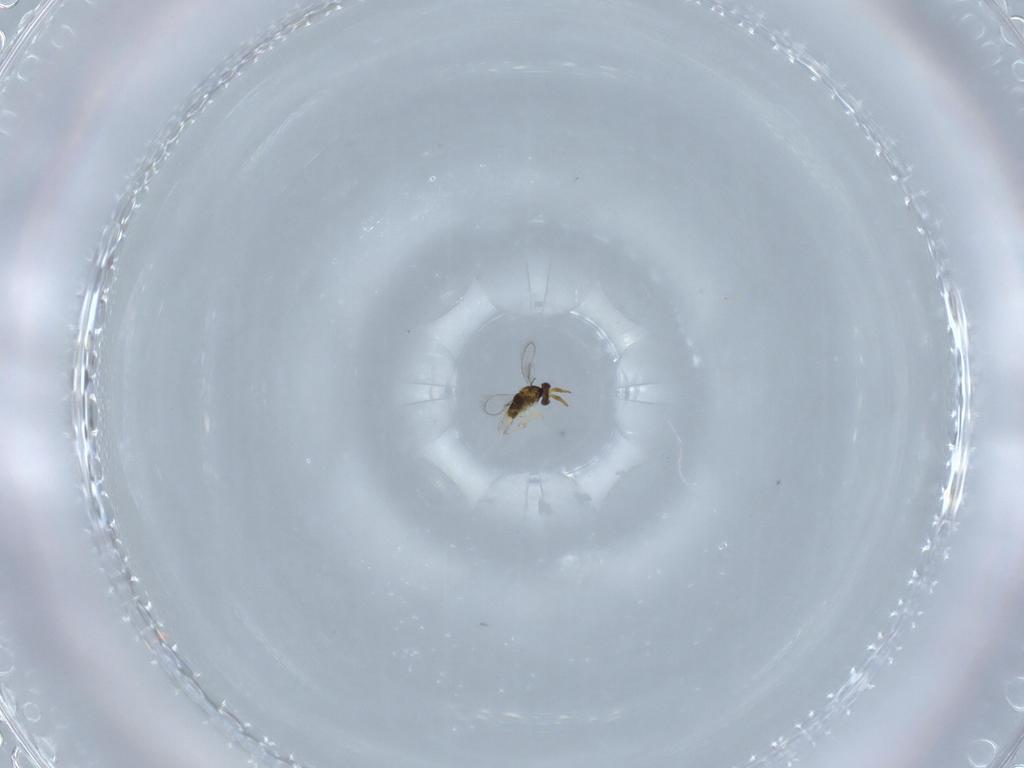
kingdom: Animalia
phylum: Arthropoda
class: Insecta
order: Hymenoptera
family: Aphelinidae
